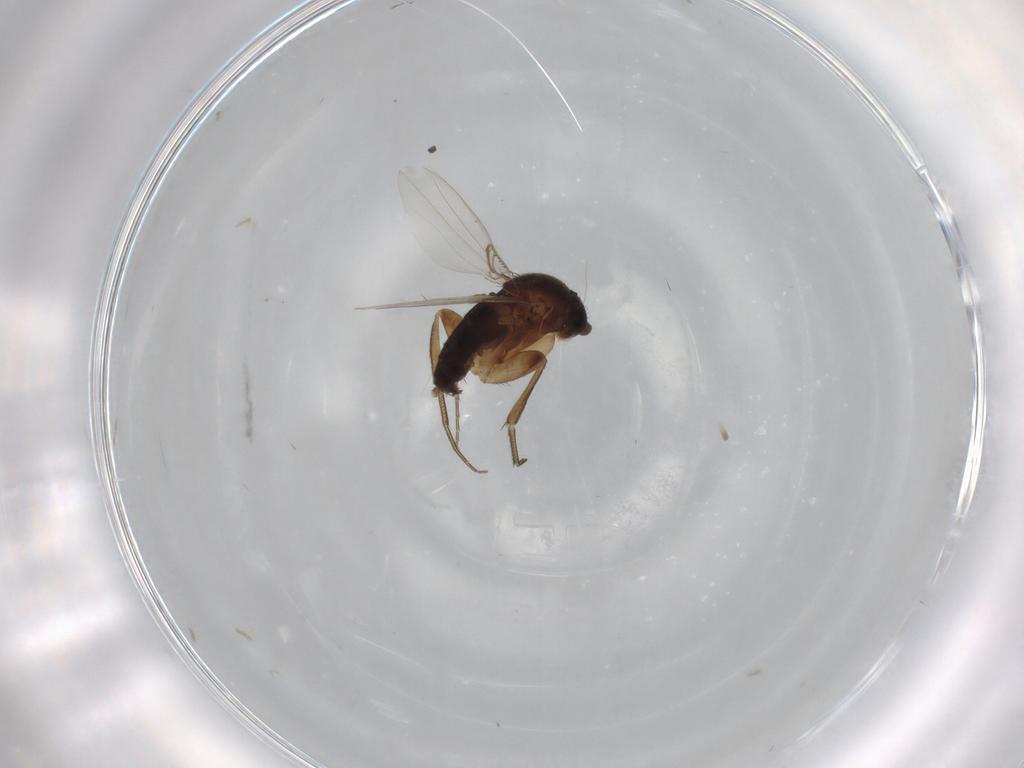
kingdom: Animalia
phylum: Arthropoda
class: Insecta
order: Diptera
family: Phoridae
